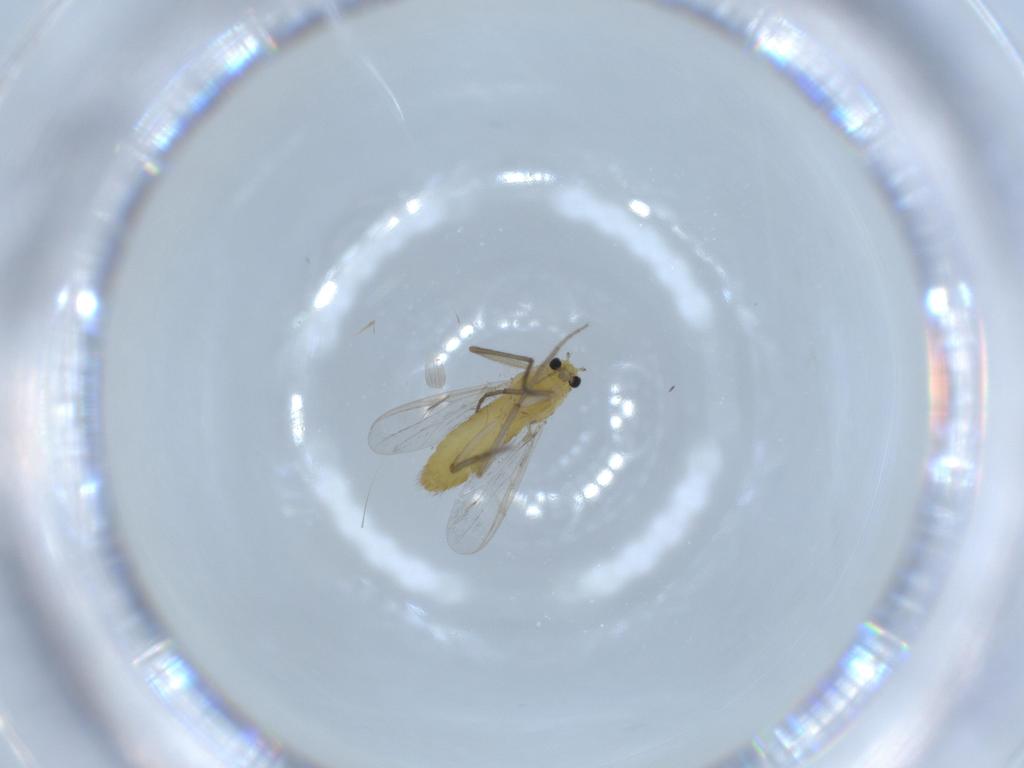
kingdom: Animalia
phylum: Arthropoda
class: Insecta
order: Diptera
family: Chironomidae
